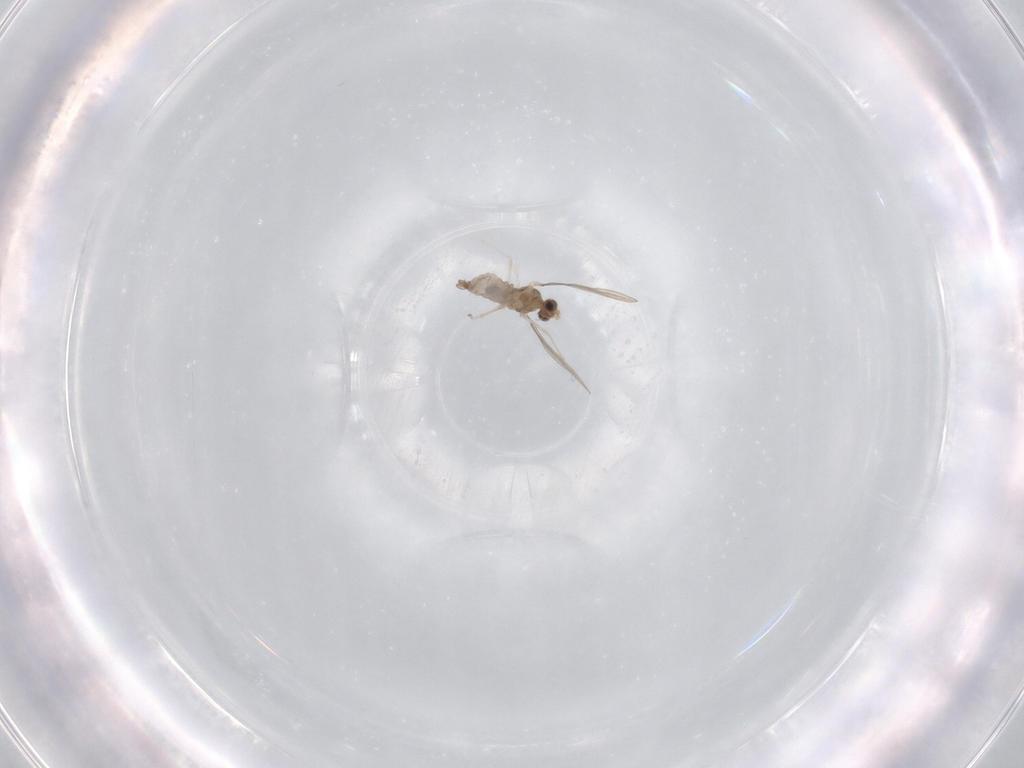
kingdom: Animalia
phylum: Arthropoda
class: Insecta
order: Diptera
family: Cecidomyiidae
